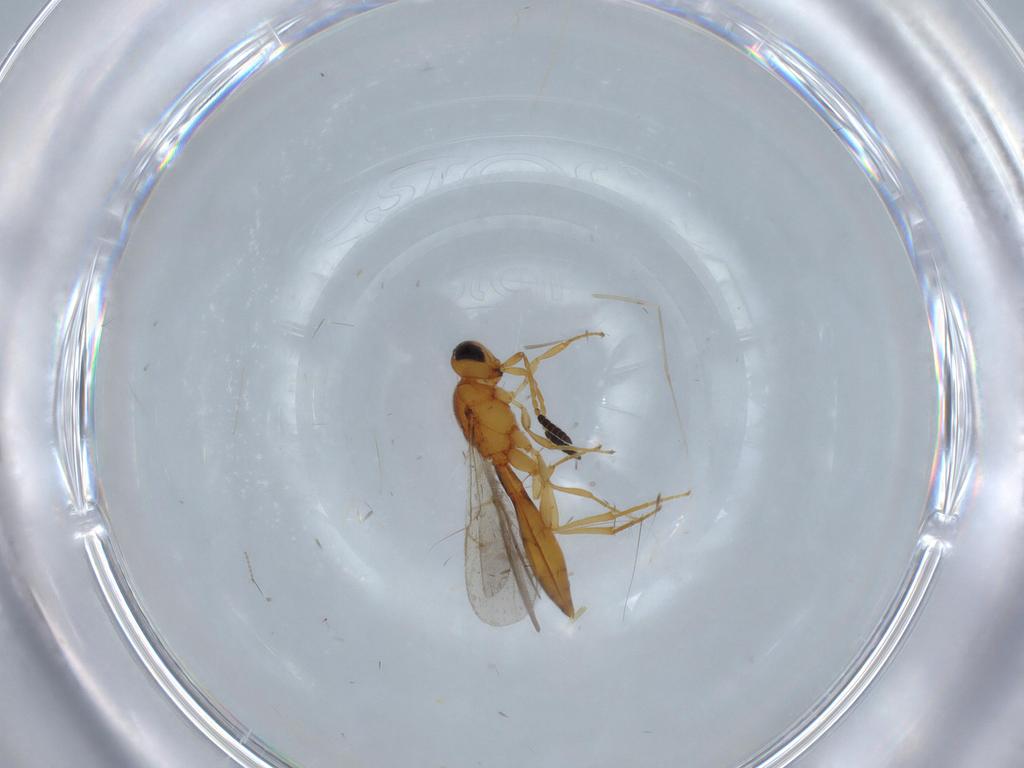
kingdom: Animalia
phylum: Arthropoda
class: Insecta
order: Hymenoptera
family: Scelionidae
